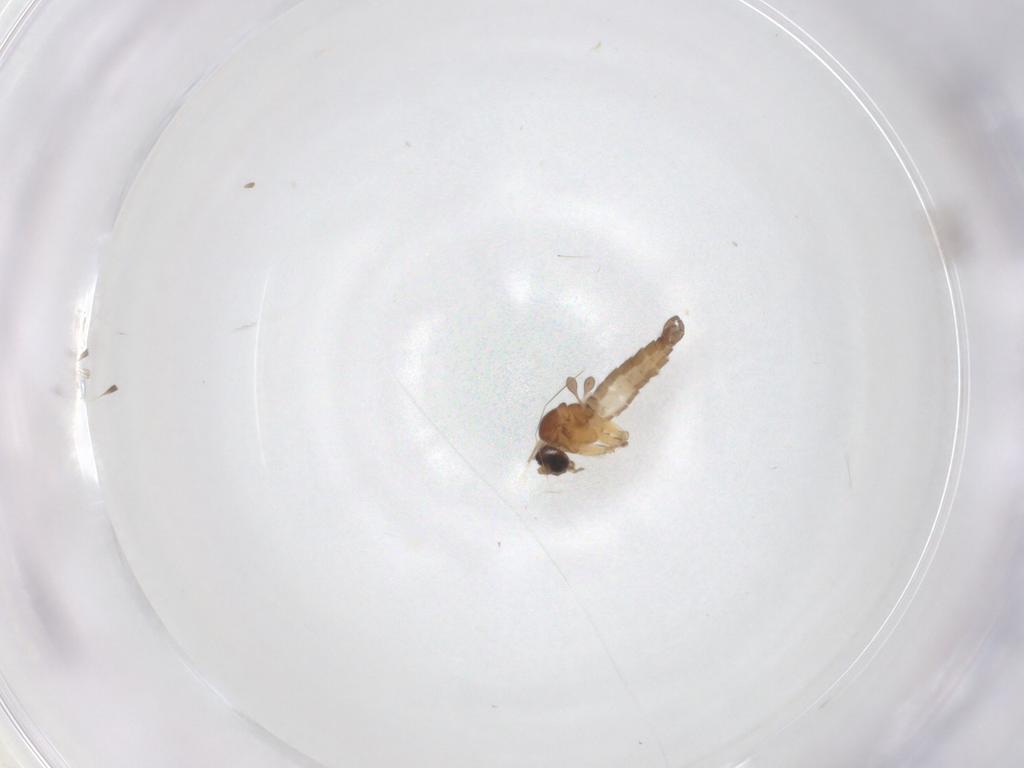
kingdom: Animalia
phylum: Arthropoda
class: Insecta
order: Diptera
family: Sciaridae
